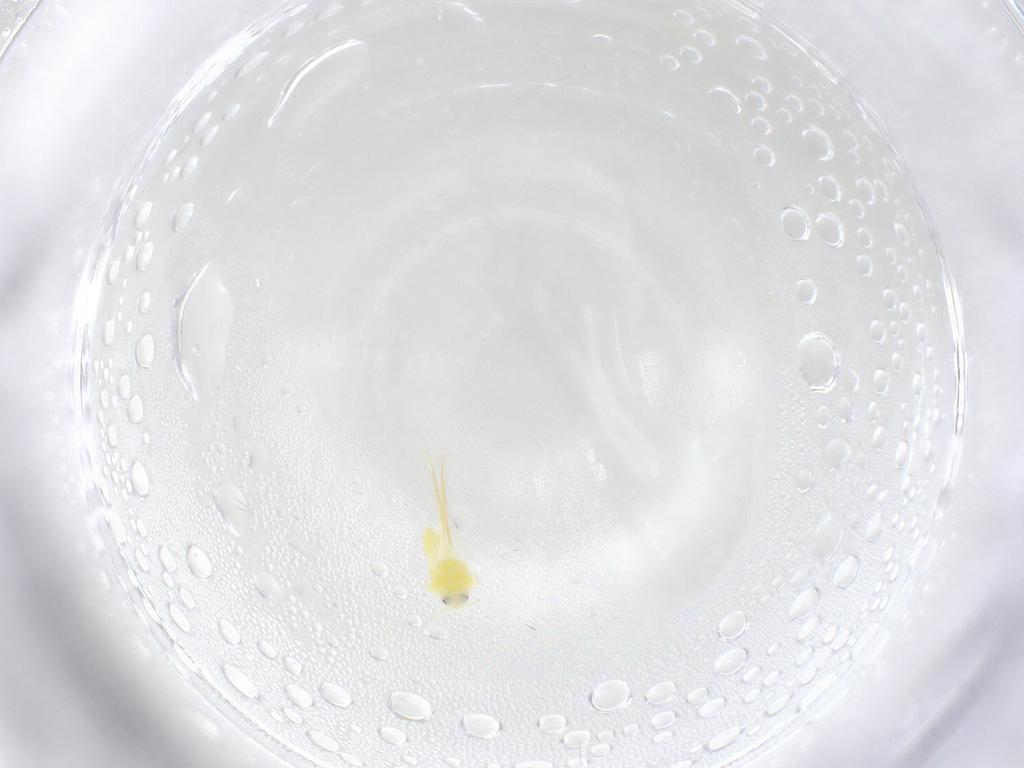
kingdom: Animalia
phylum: Arthropoda
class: Insecta
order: Hemiptera
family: Aleyrodidae
